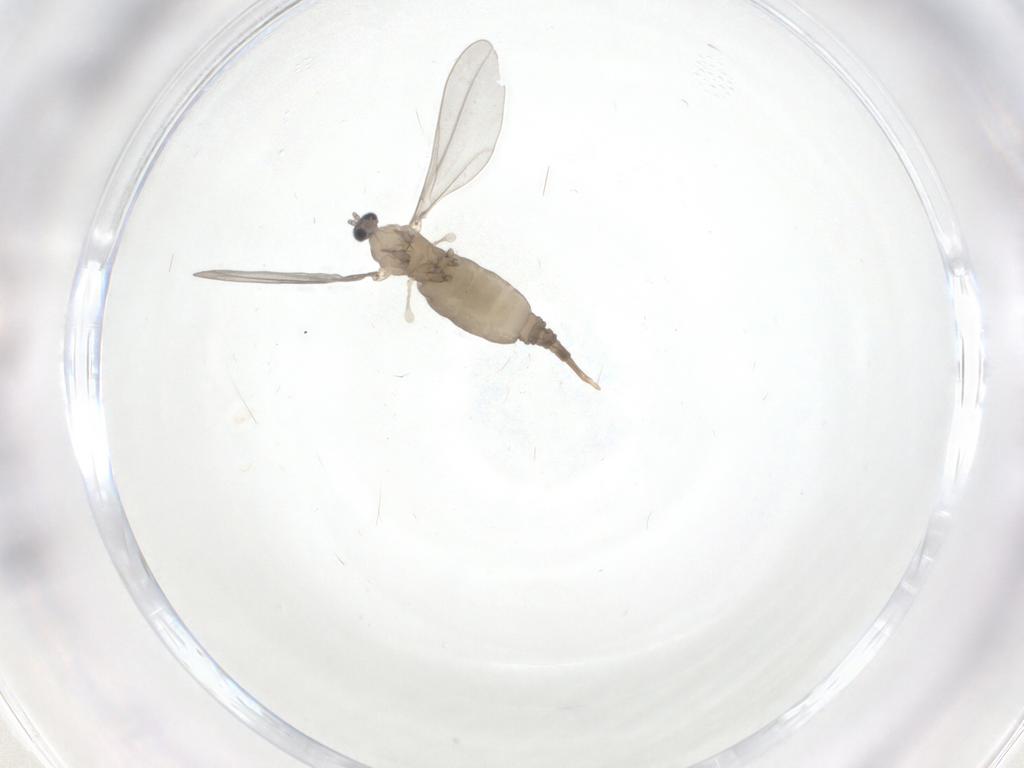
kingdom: Animalia
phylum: Arthropoda
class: Insecta
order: Diptera
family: Cecidomyiidae
